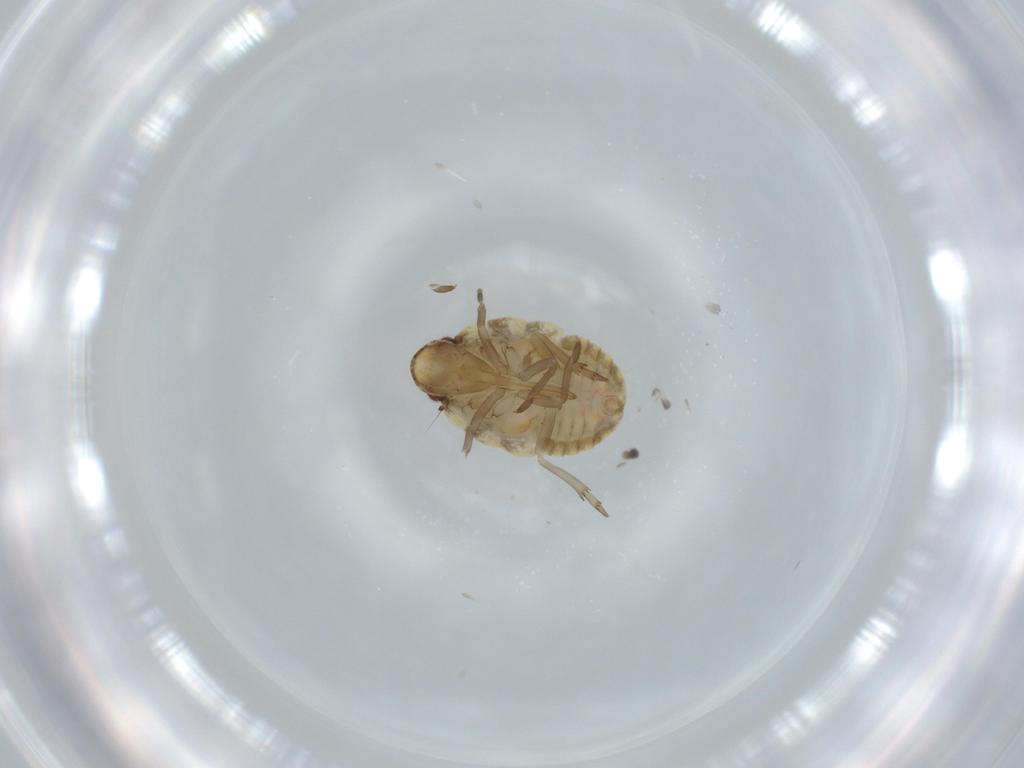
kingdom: Animalia
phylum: Arthropoda
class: Insecta
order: Hemiptera
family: Flatidae
